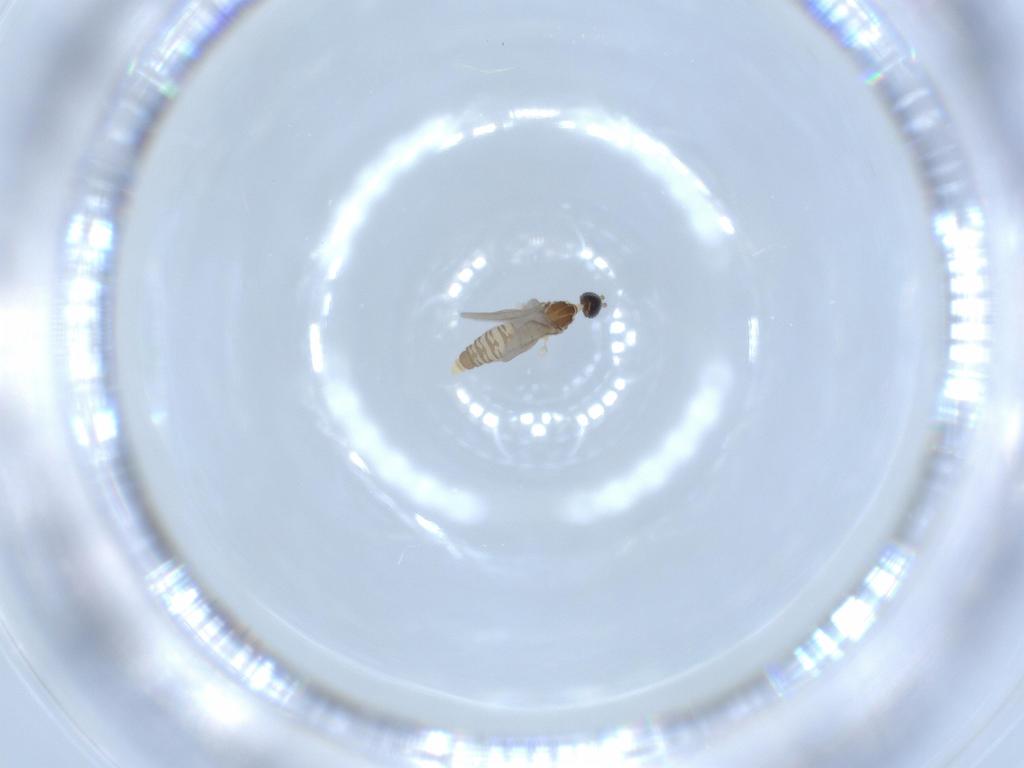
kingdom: Animalia
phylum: Arthropoda
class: Insecta
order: Diptera
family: Cecidomyiidae
